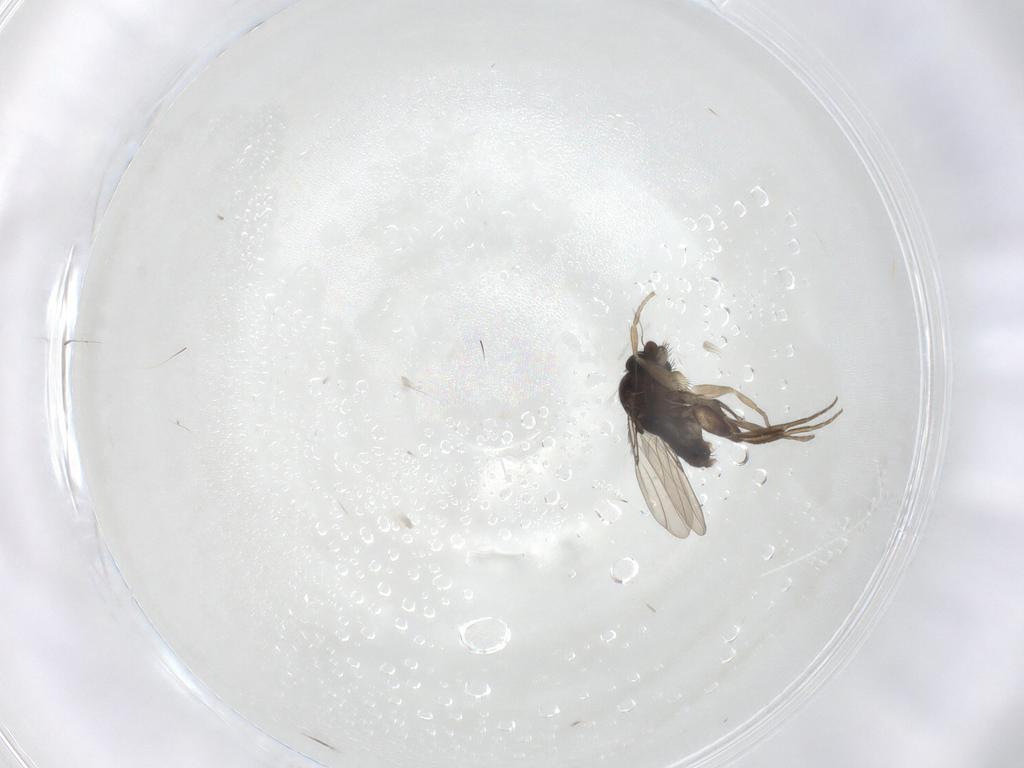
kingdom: Animalia
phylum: Arthropoda
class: Insecta
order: Diptera
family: Keroplatidae
